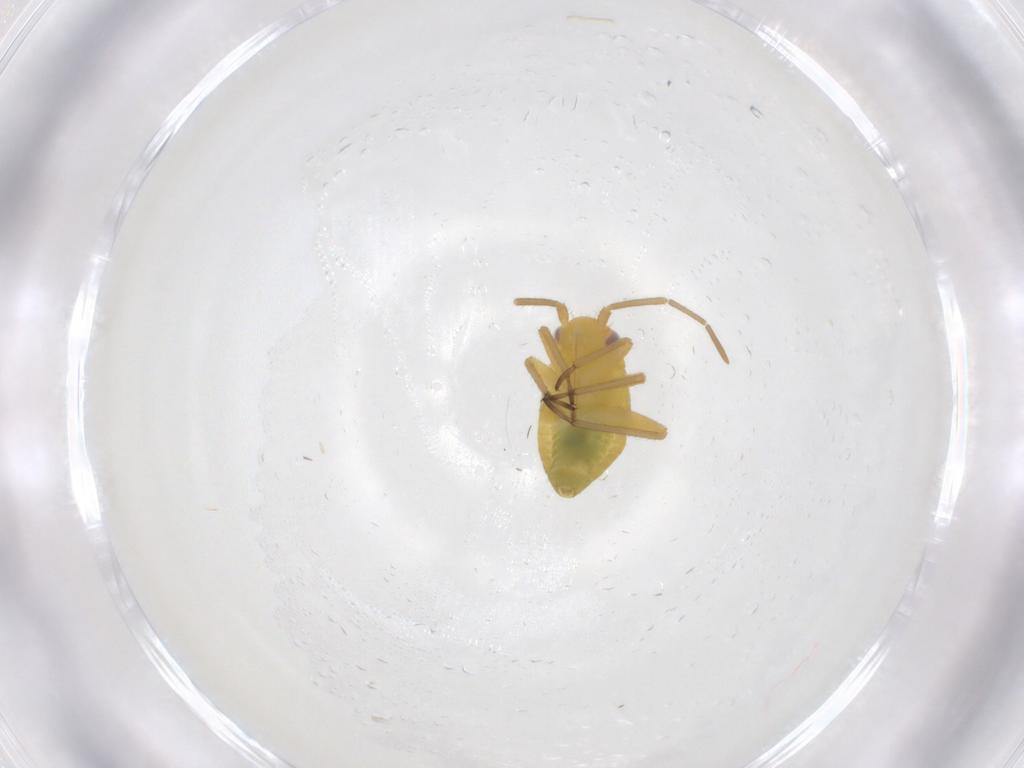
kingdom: Animalia
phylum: Arthropoda
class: Insecta
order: Hemiptera
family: Miridae
